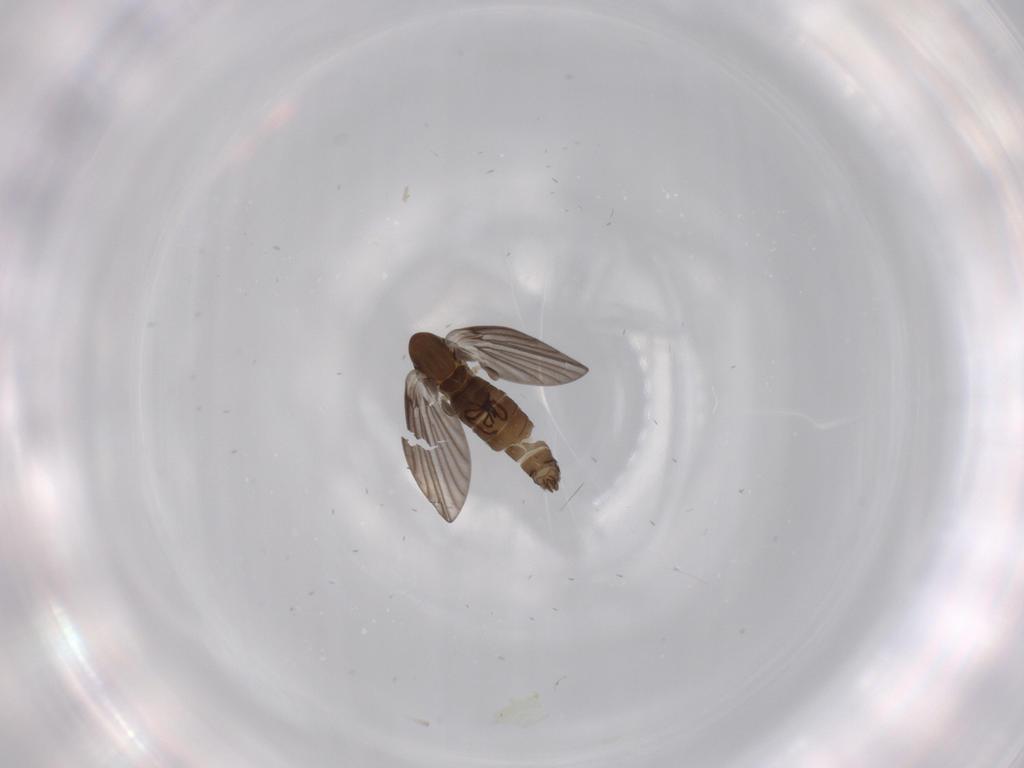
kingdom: Animalia
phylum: Arthropoda
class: Insecta
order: Diptera
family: Psychodidae
